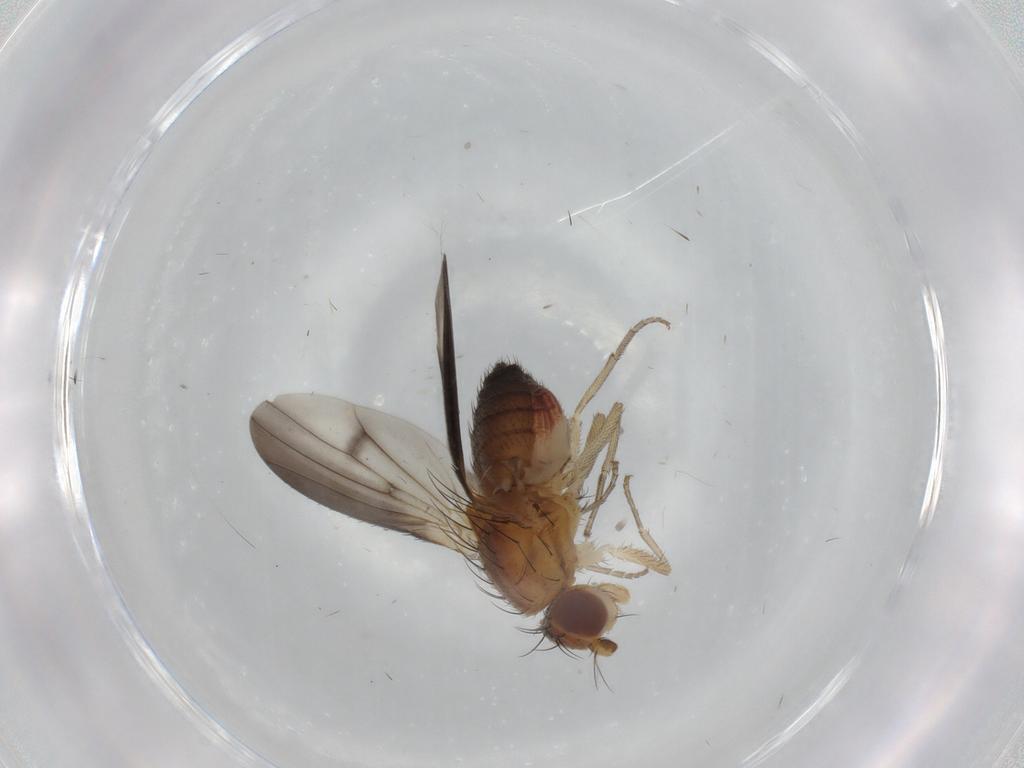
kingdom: Animalia
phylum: Arthropoda
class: Insecta
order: Diptera
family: Heleomyzidae
